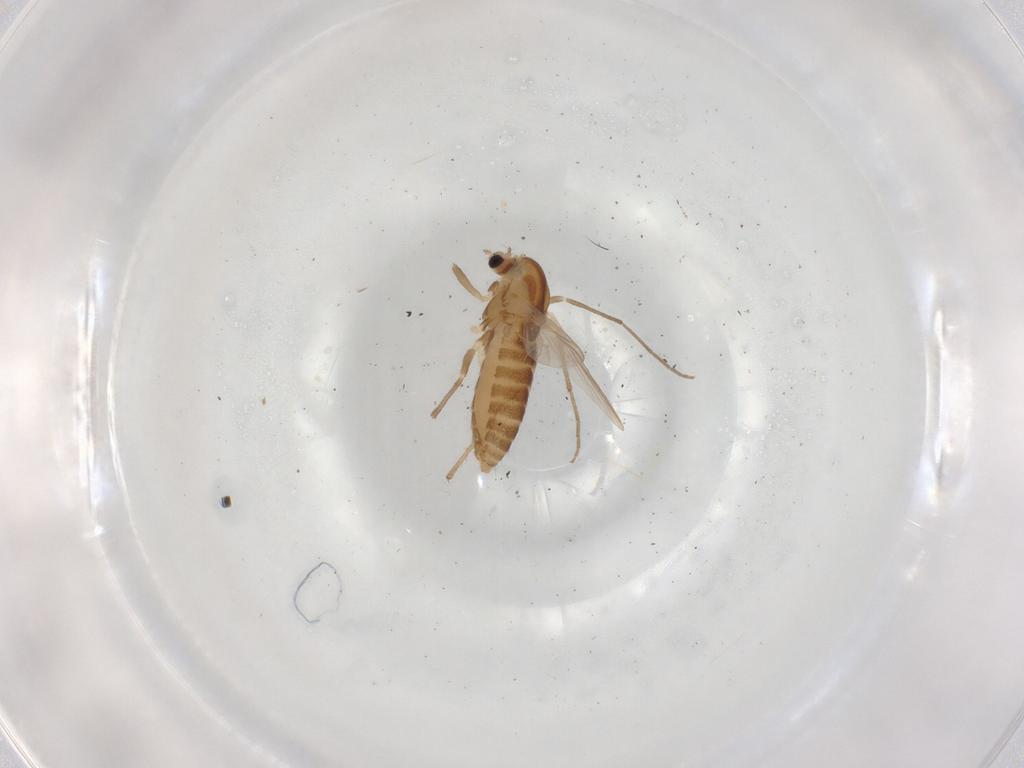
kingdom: Animalia
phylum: Arthropoda
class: Insecta
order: Diptera
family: Chironomidae
